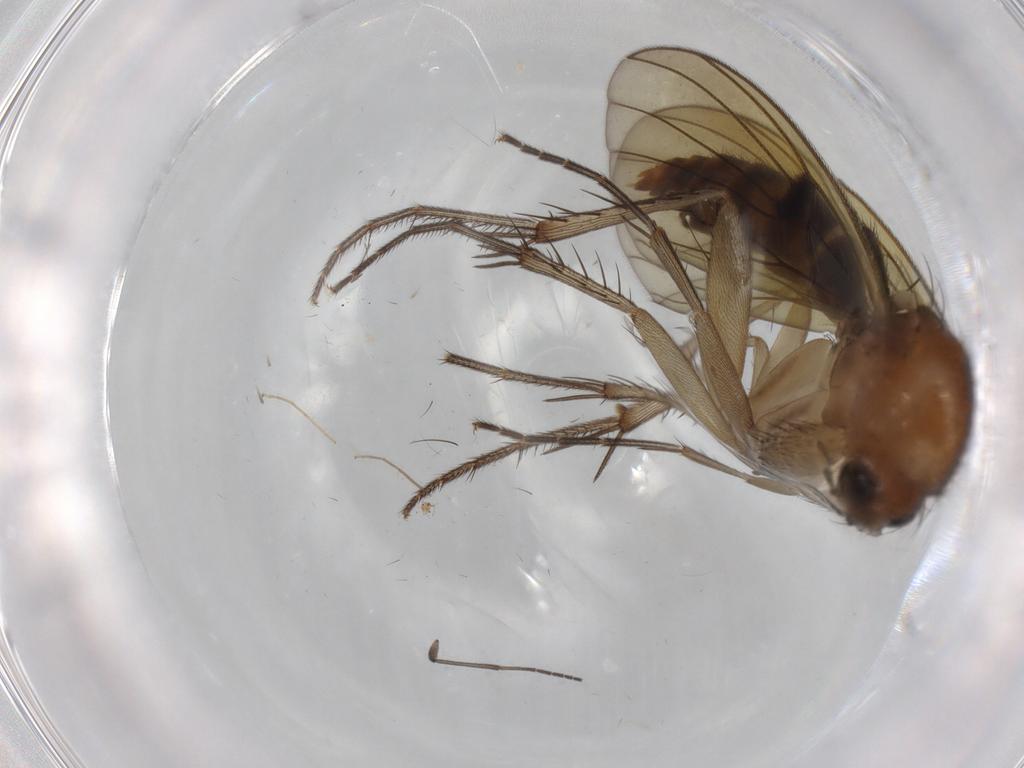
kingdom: Animalia
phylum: Arthropoda
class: Insecta
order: Diptera
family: Sciaridae
